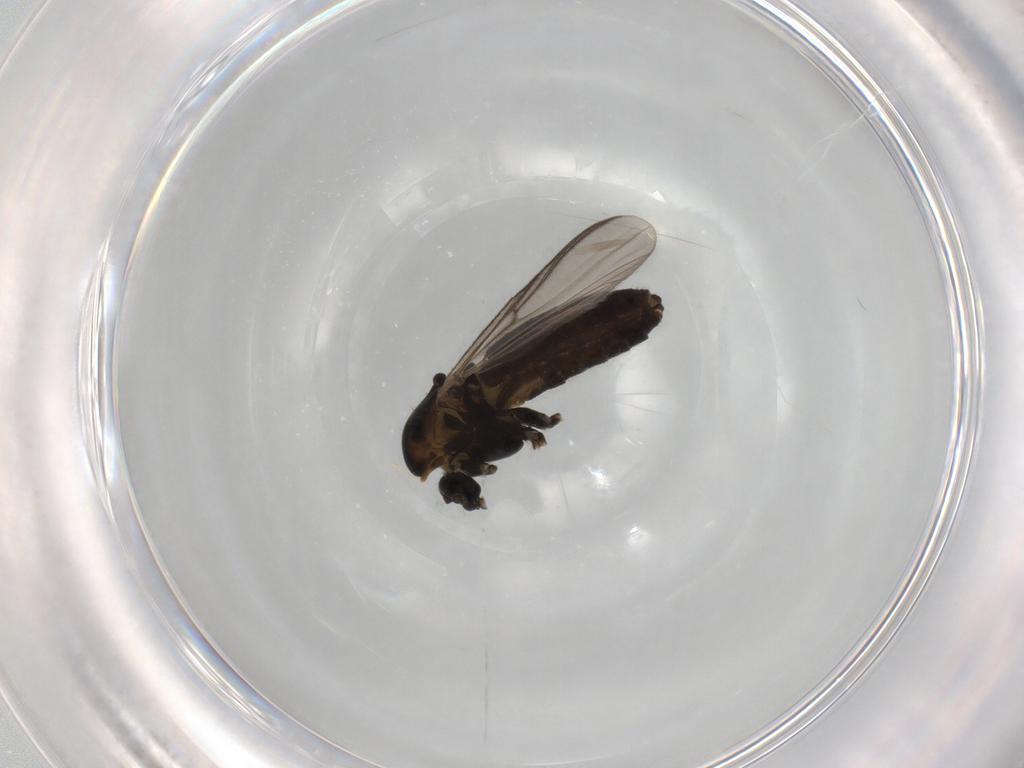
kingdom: Animalia
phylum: Arthropoda
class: Insecta
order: Diptera
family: Chironomidae
